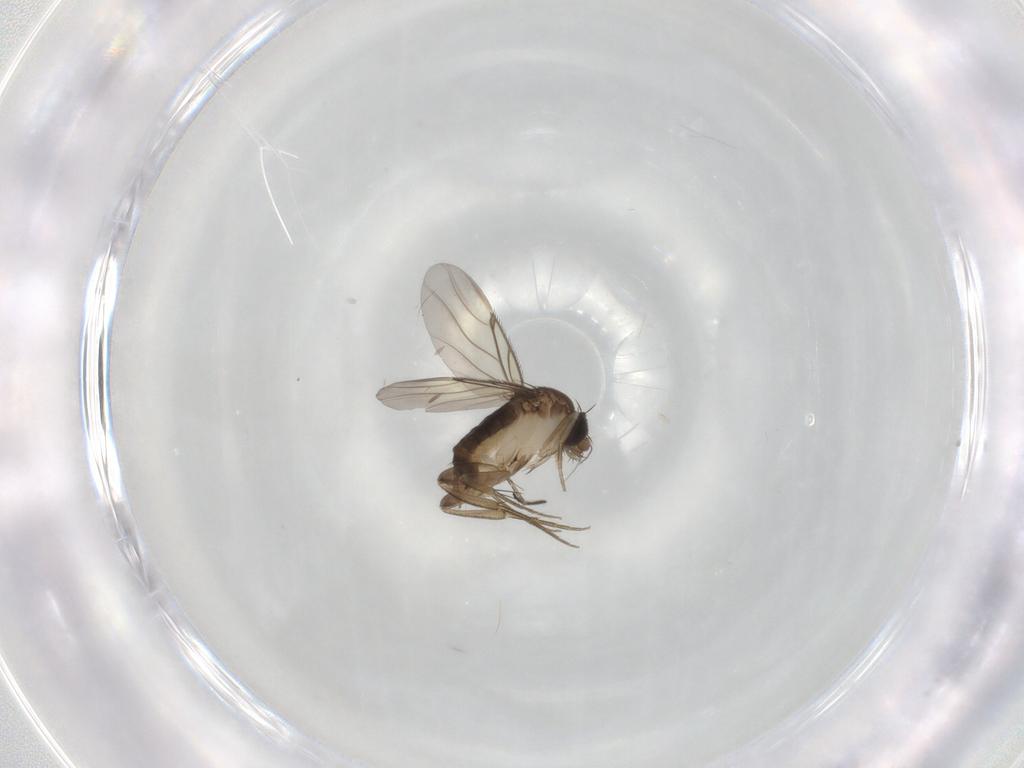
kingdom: Animalia
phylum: Arthropoda
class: Insecta
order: Diptera
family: Phoridae
